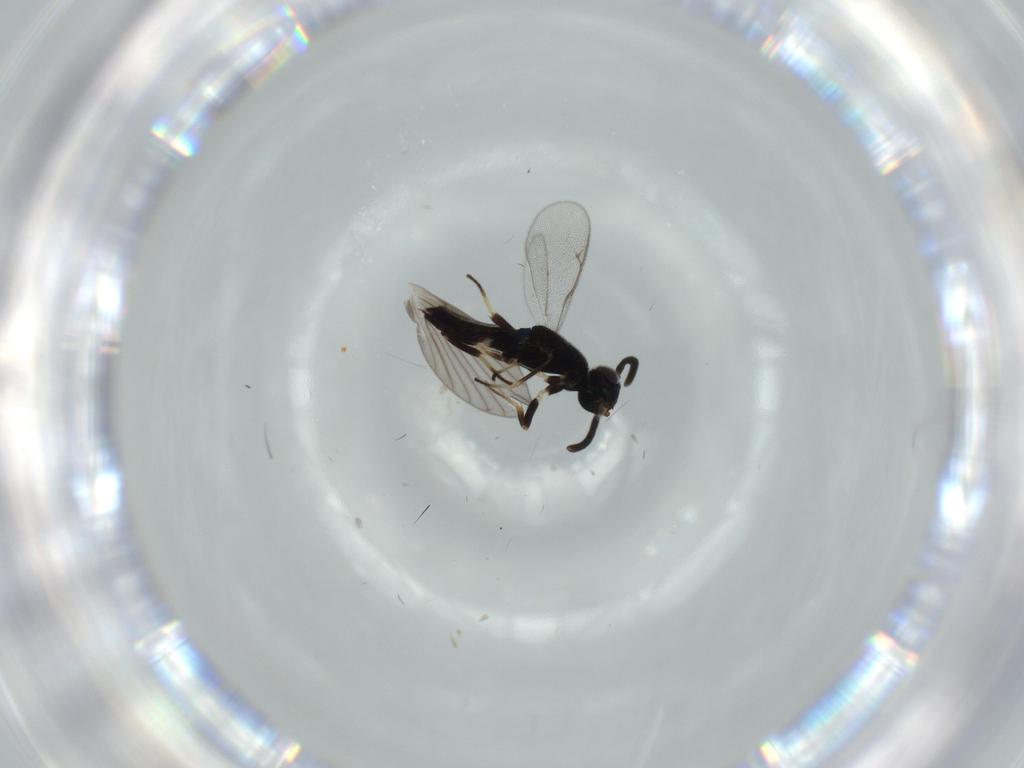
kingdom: Animalia
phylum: Arthropoda
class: Insecta
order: Hymenoptera
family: Eupelmidae
